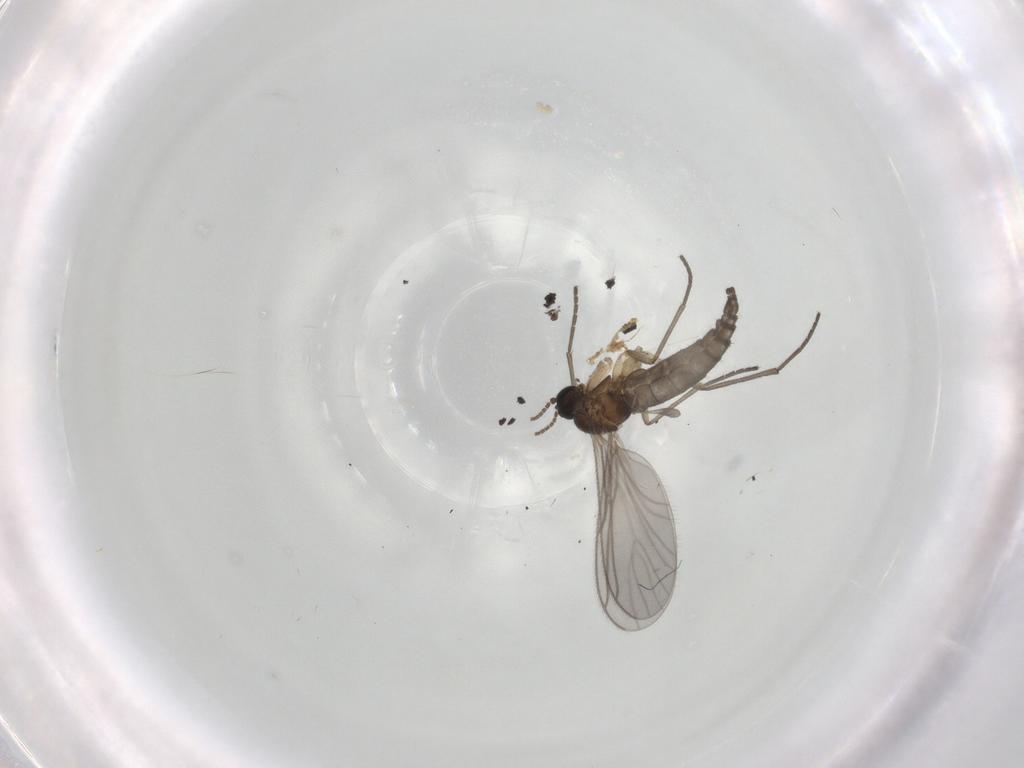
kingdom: Animalia
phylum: Arthropoda
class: Insecta
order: Diptera
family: Sciaridae
